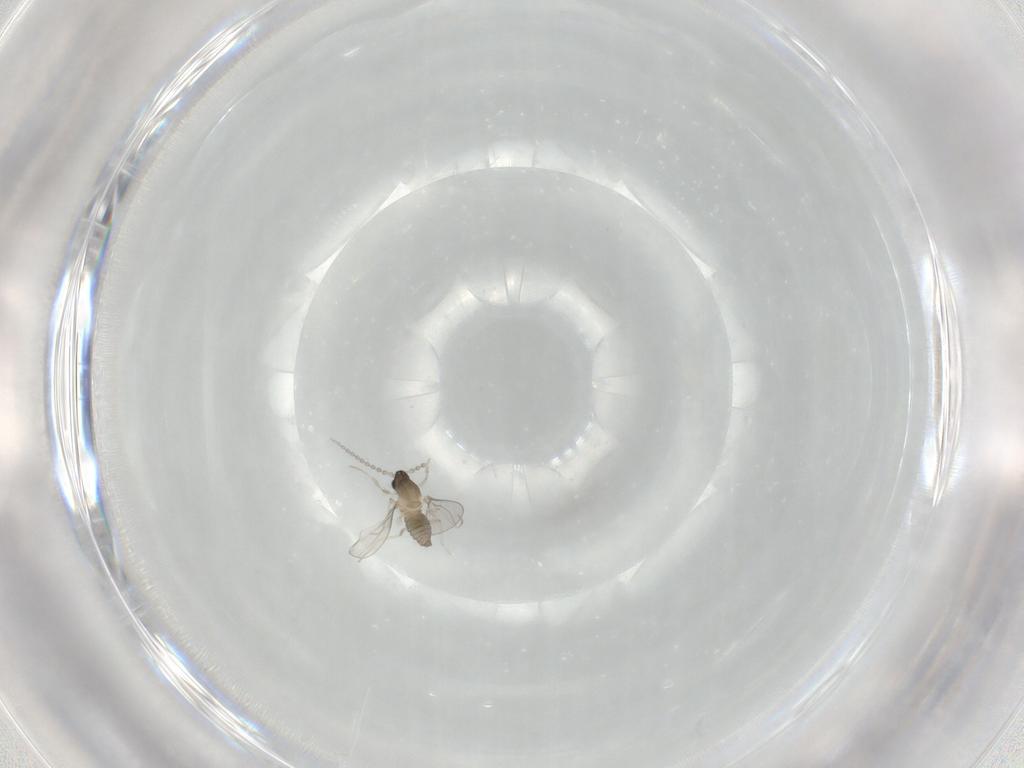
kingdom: Animalia
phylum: Arthropoda
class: Insecta
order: Diptera
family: Cecidomyiidae
